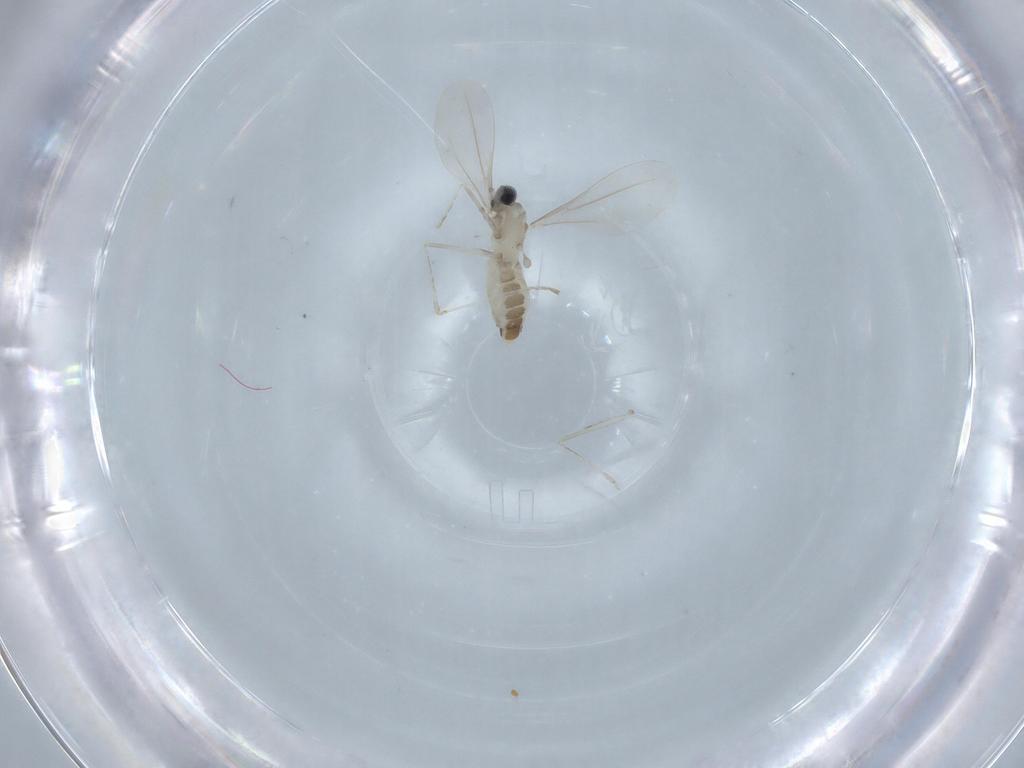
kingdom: Animalia
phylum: Arthropoda
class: Insecta
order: Diptera
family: Cecidomyiidae
